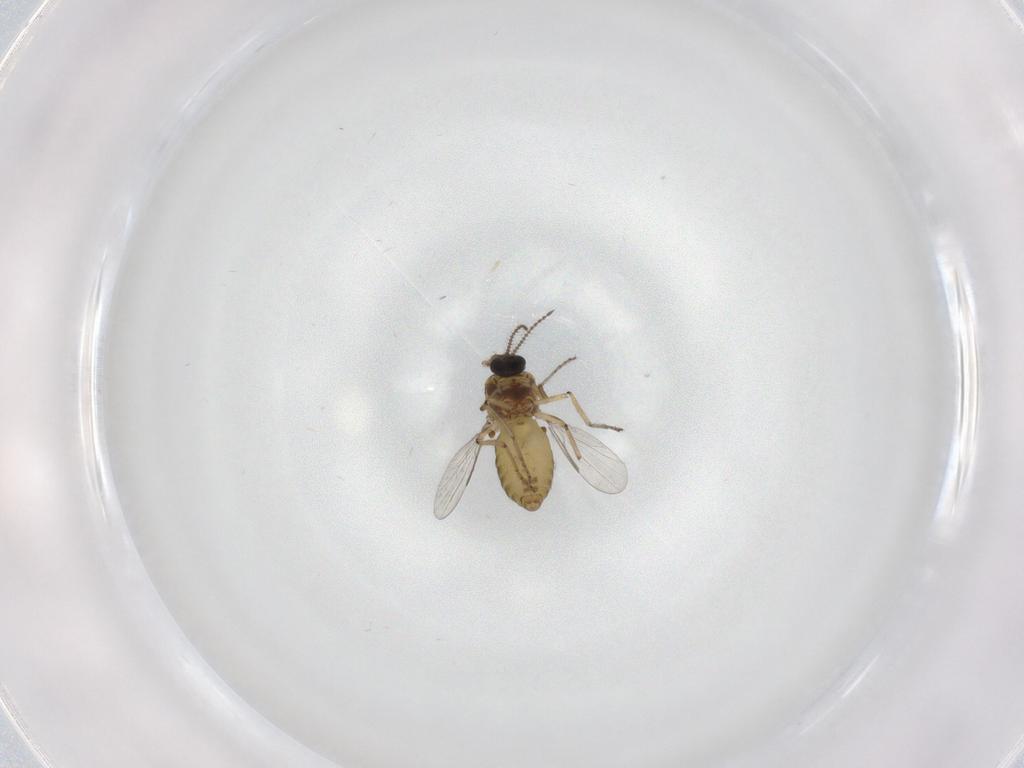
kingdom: Animalia
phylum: Arthropoda
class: Insecta
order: Diptera
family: Ceratopogonidae
